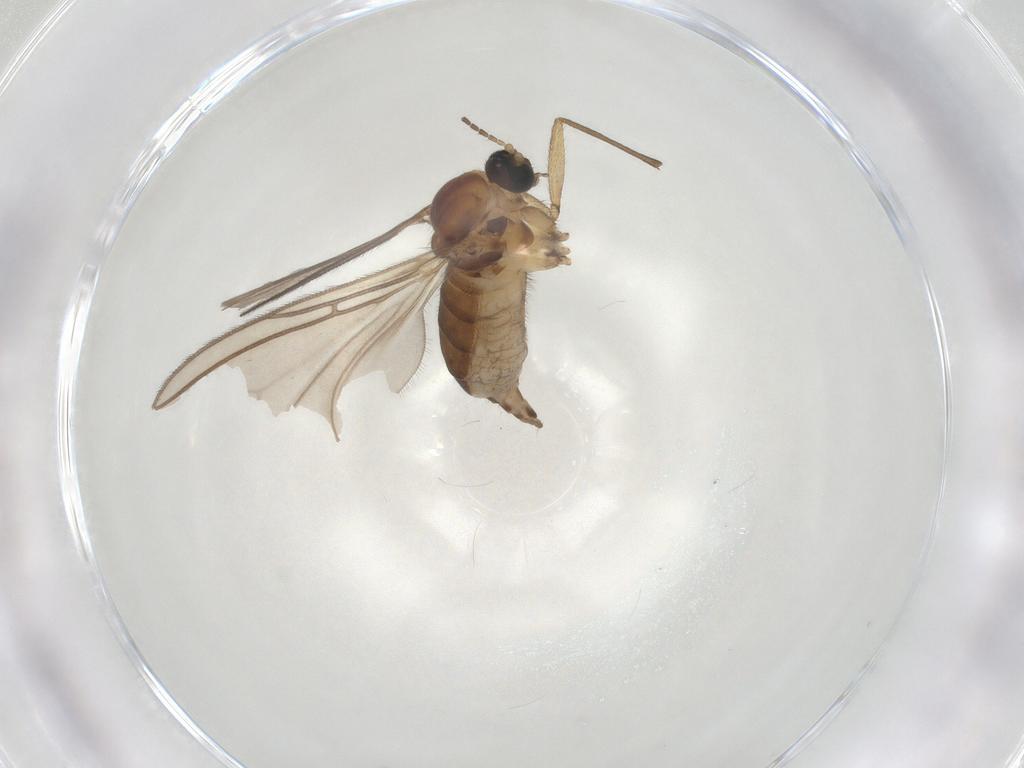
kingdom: Animalia
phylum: Arthropoda
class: Insecta
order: Diptera
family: Sciaridae
